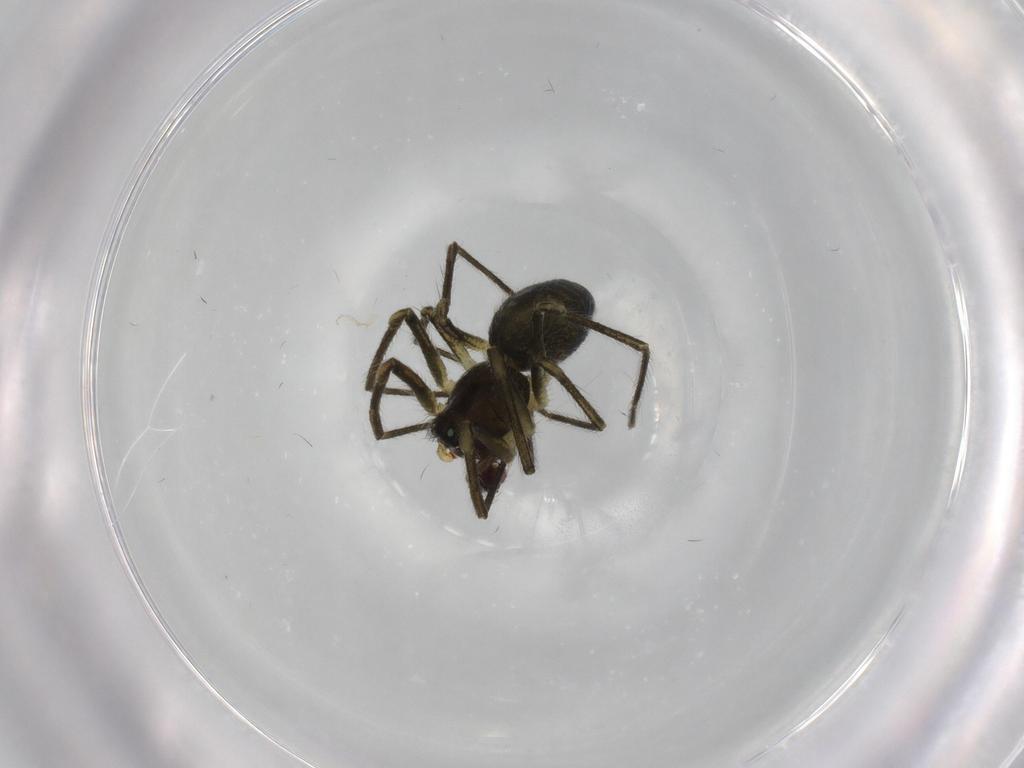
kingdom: Animalia
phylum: Arthropoda
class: Arachnida
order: Araneae
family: Linyphiidae
